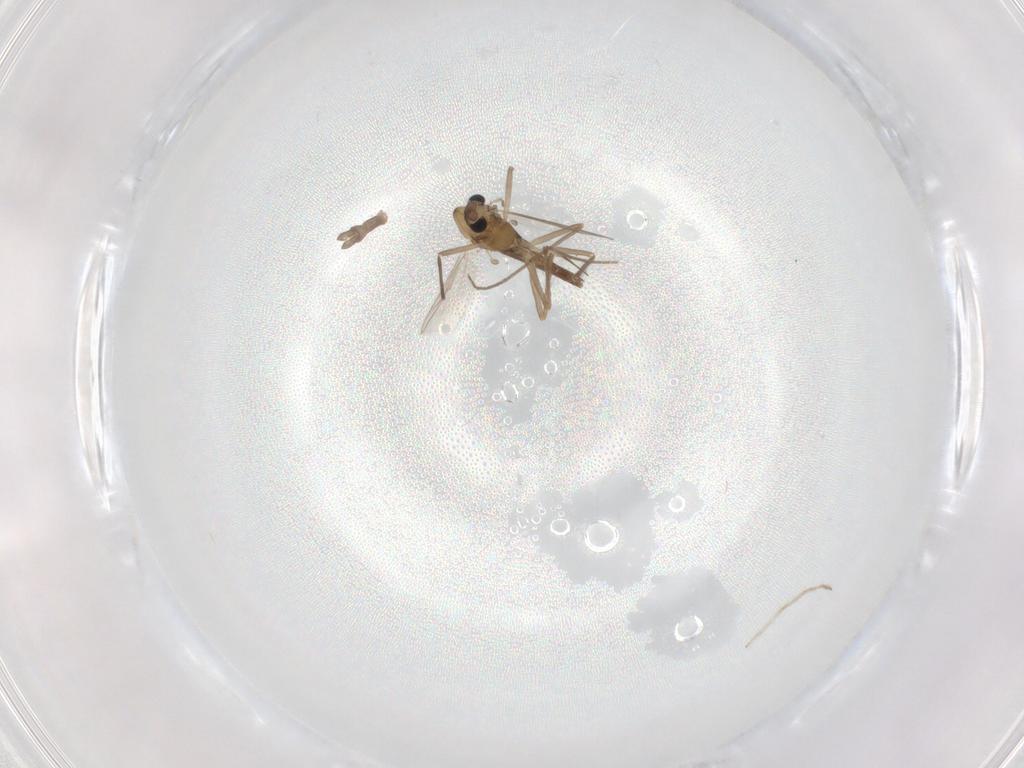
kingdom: Animalia
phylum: Arthropoda
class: Insecta
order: Diptera
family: Chironomidae
